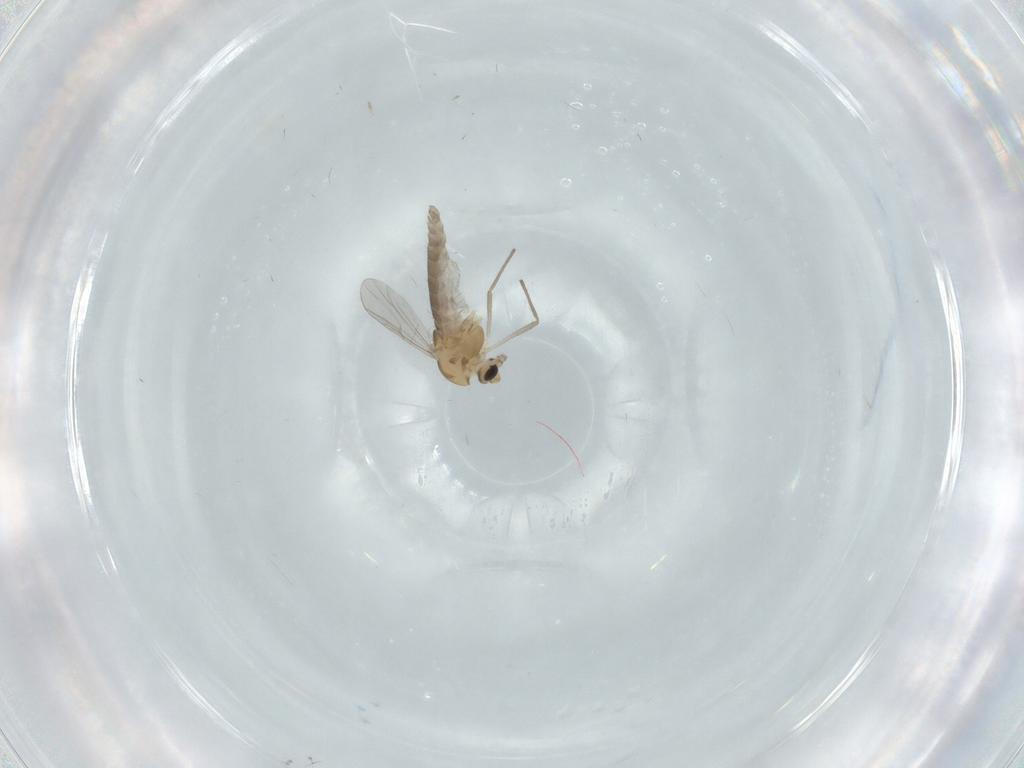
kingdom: Animalia
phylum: Arthropoda
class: Insecta
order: Diptera
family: Chironomidae
